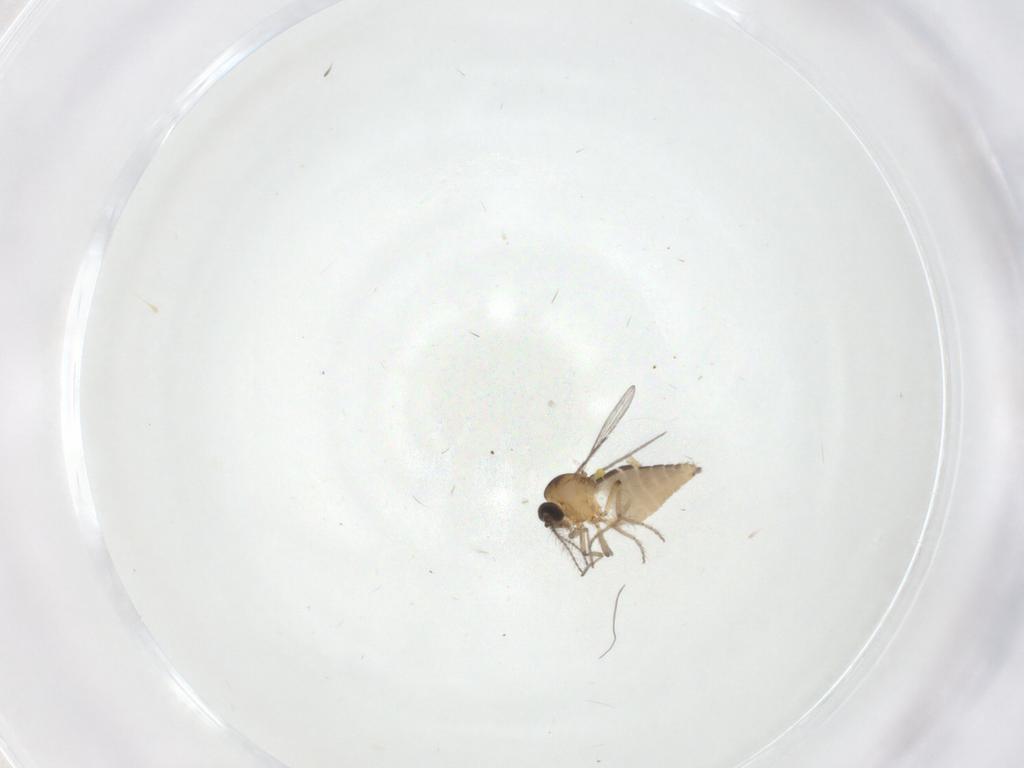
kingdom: Animalia
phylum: Arthropoda
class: Insecta
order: Diptera
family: Ceratopogonidae
